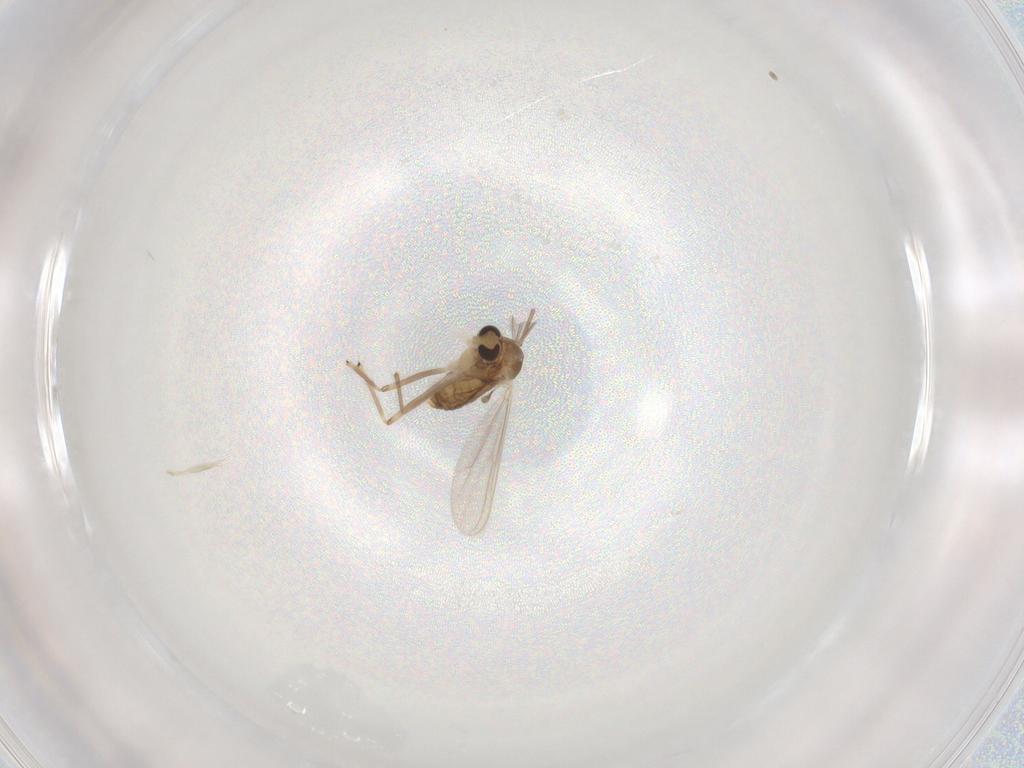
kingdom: Animalia
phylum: Arthropoda
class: Insecta
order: Diptera
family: Chironomidae
